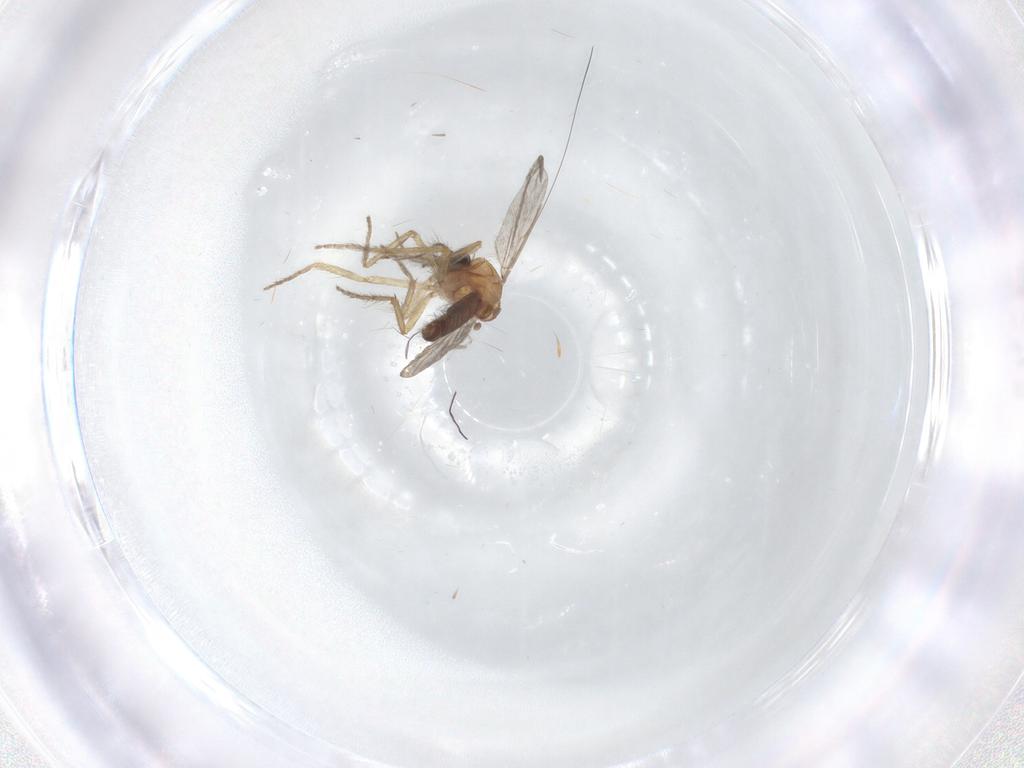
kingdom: Animalia
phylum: Arthropoda
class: Insecta
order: Diptera
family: Ceratopogonidae
